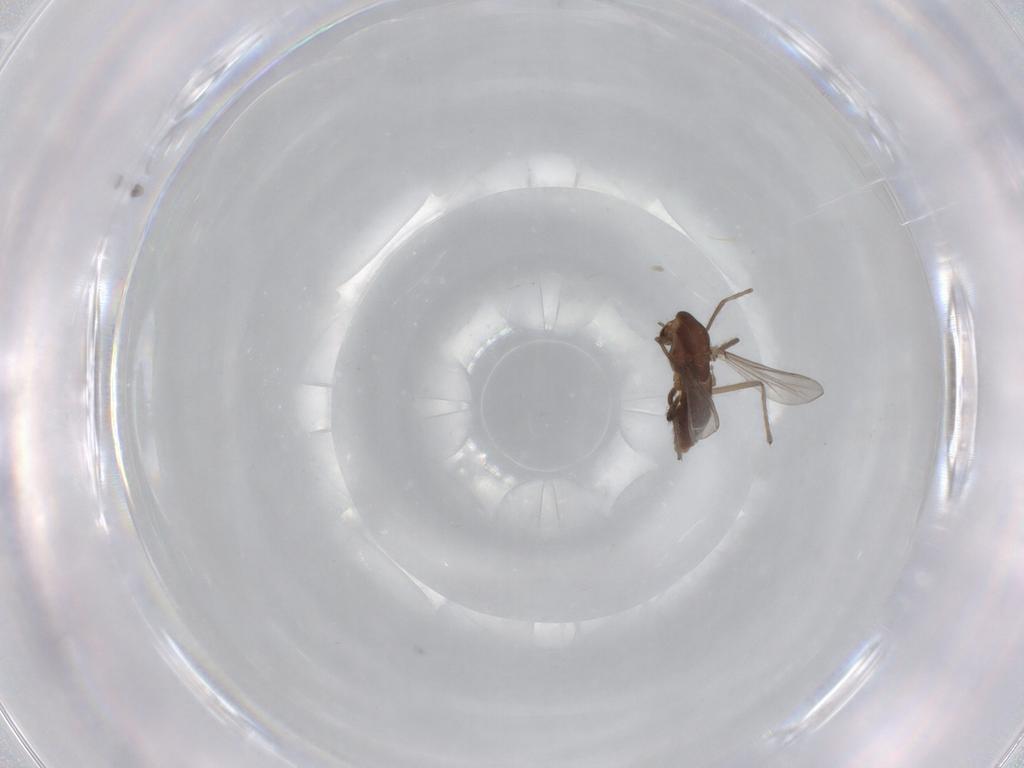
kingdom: Animalia
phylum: Arthropoda
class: Insecta
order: Diptera
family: Chironomidae
